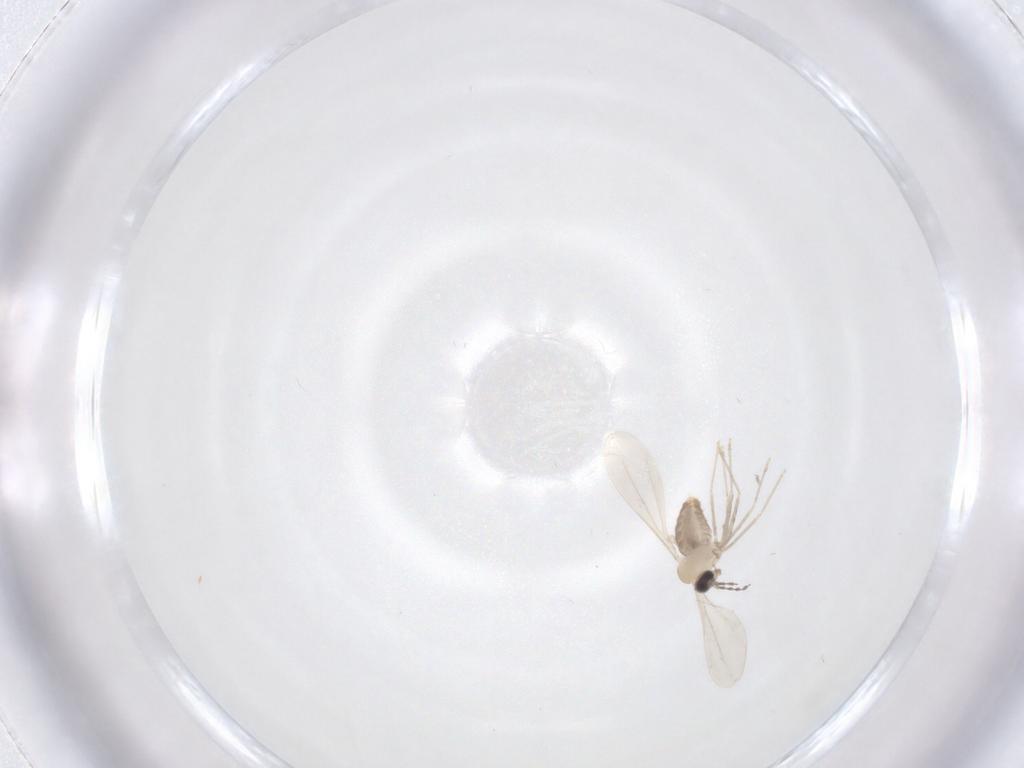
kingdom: Animalia
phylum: Arthropoda
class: Insecta
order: Diptera
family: Cecidomyiidae
